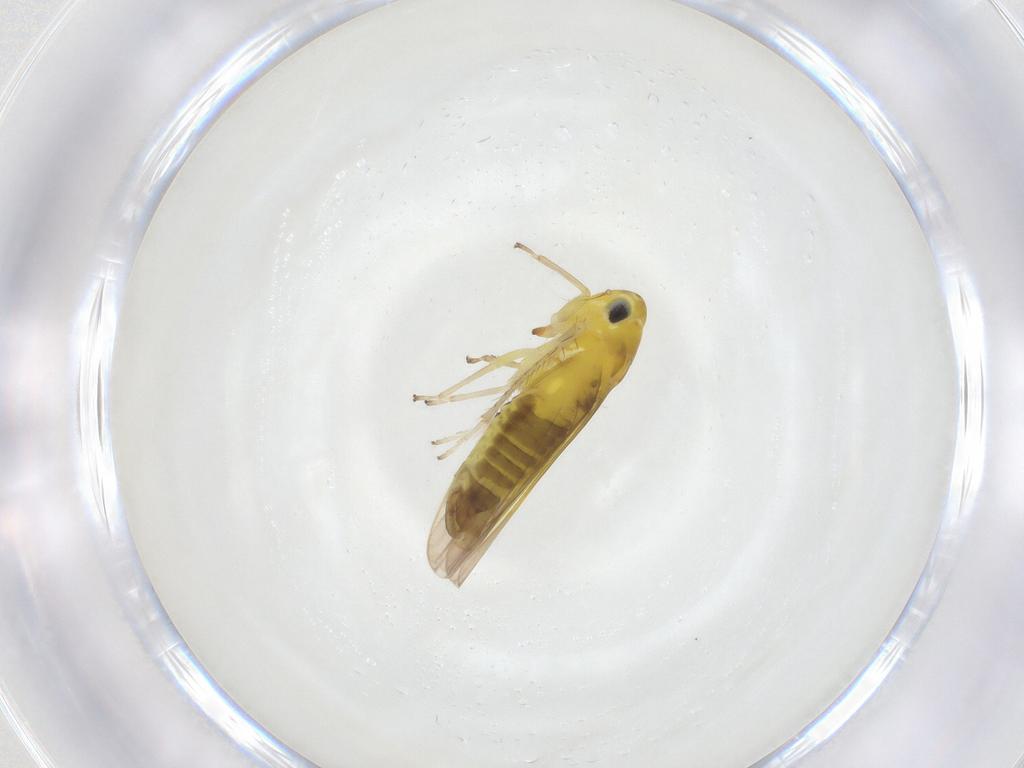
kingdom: Animalia
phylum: Arthropoda
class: Insecta
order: Hemiptera
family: Cicadellidae
